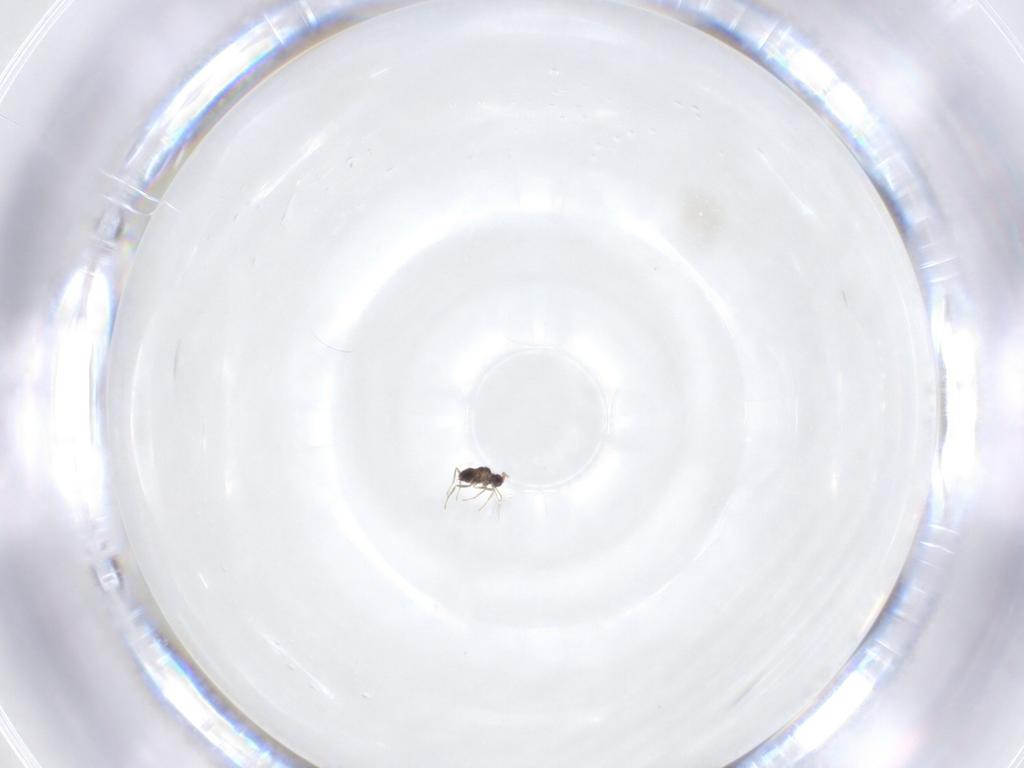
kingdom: Animalia
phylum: Arthropoda
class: Insecta
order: Hymenoptera
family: Mymaridae
